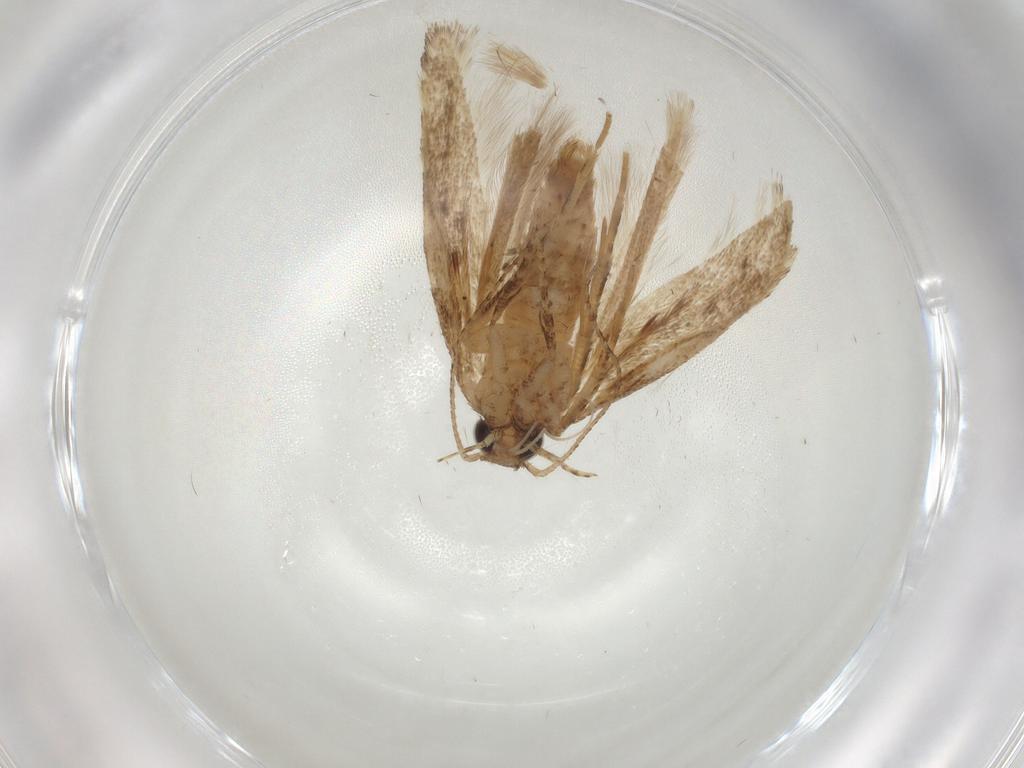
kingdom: Animalia
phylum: Arthropoda
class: Insecta
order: Lepidoptera
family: Gelechiidae
